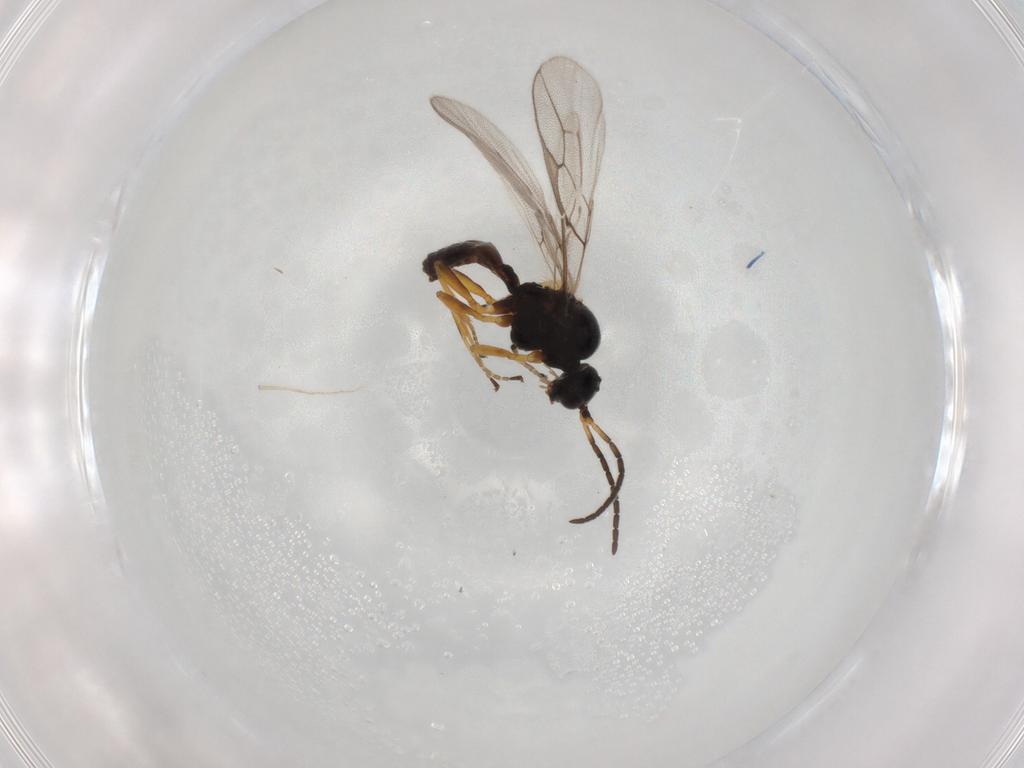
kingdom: Animalia
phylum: Arthropoda
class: Insecta
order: Hymenoptera
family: Braconidae
